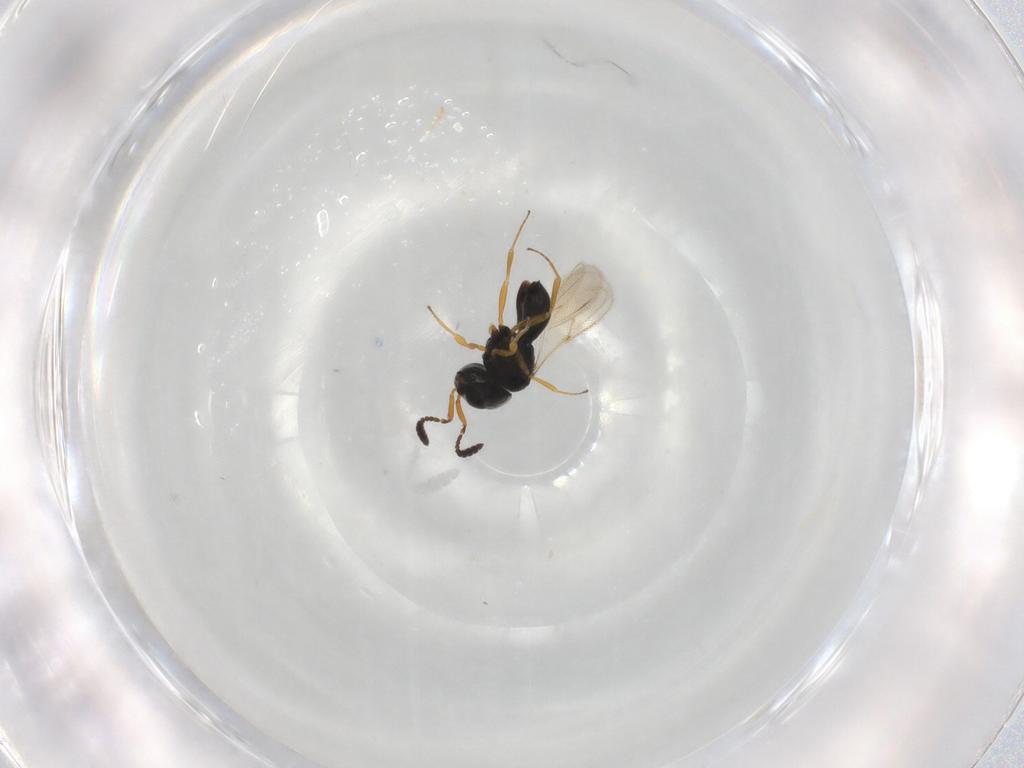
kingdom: Animalia
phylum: Arthropoda
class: Insecta
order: Hymenoptera
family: Scelionidae
